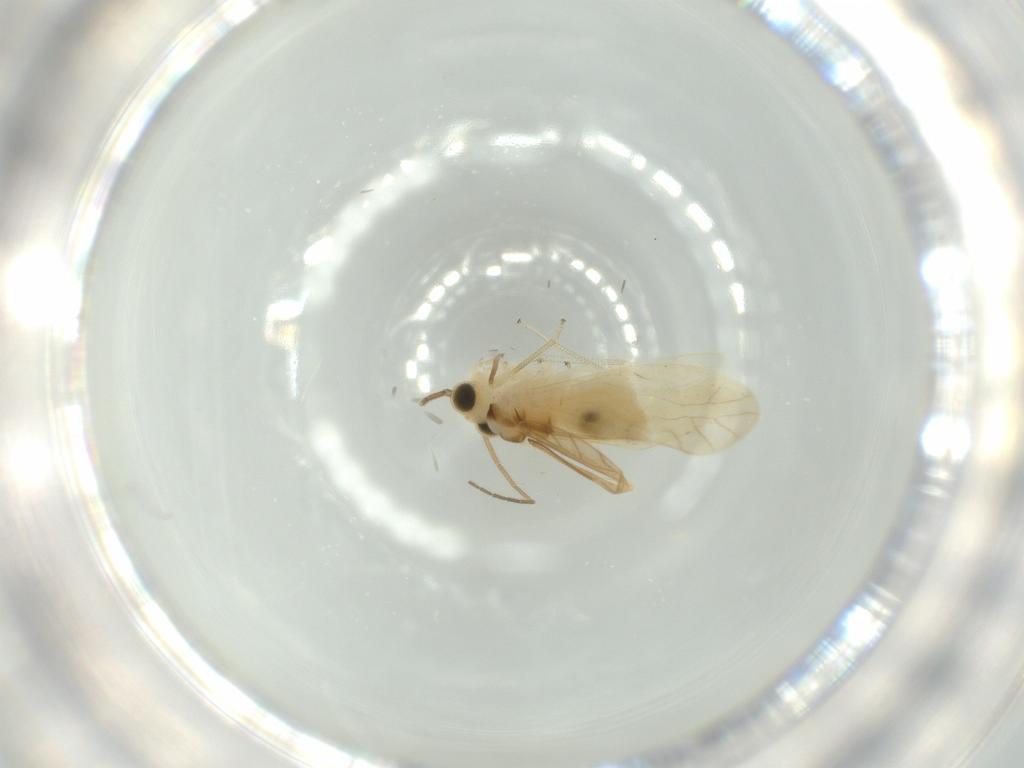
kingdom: Animalia
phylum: Arthropoda
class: Insecta
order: Psocodea
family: Caeciliusidae
